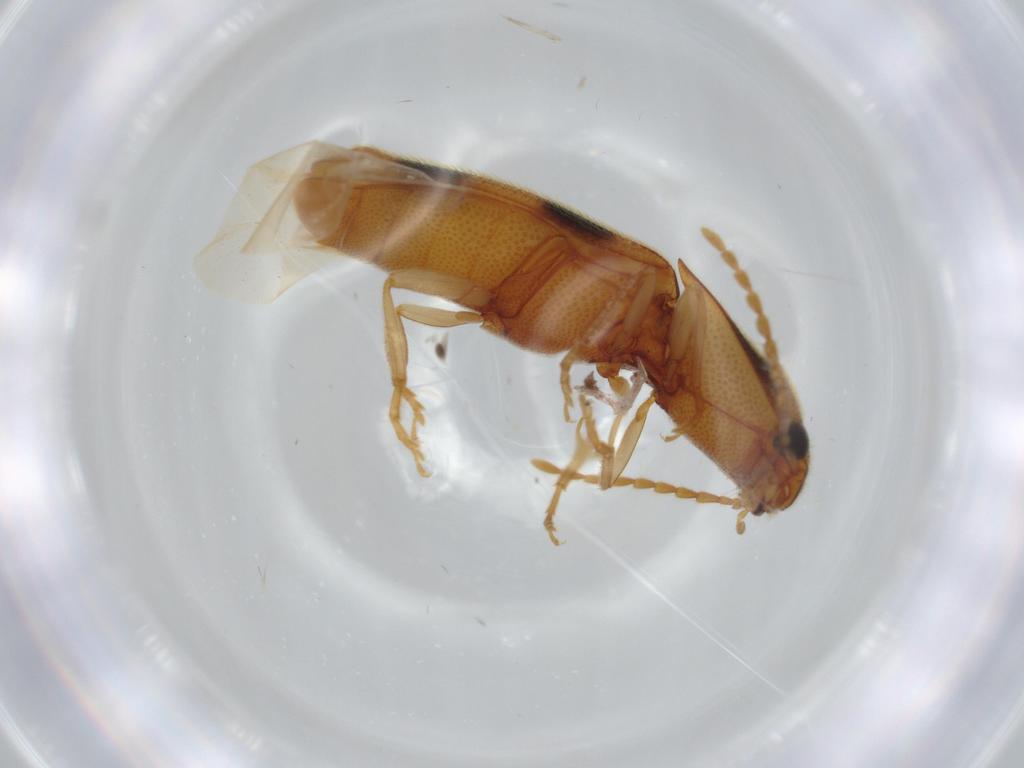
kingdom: Animalia
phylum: Arthropoda
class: Insecta
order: Coleoptera
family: Elateridae
